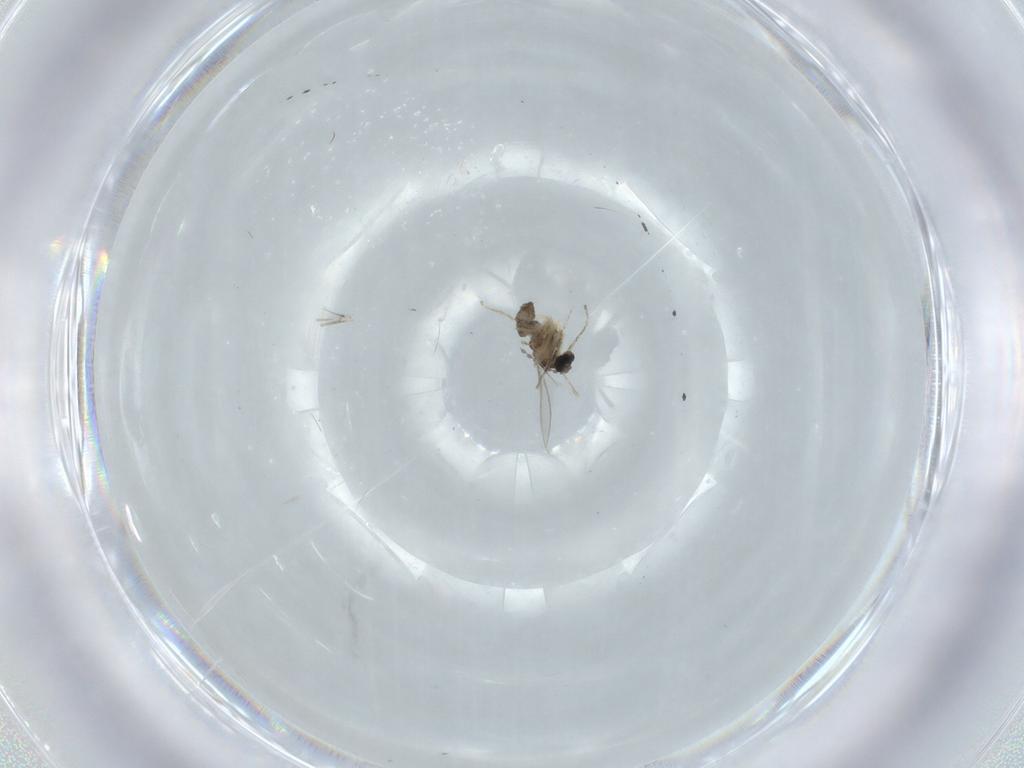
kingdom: Animalia
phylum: Arthropoda
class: Insecta
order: Diptera
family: Cecidomyiidae
